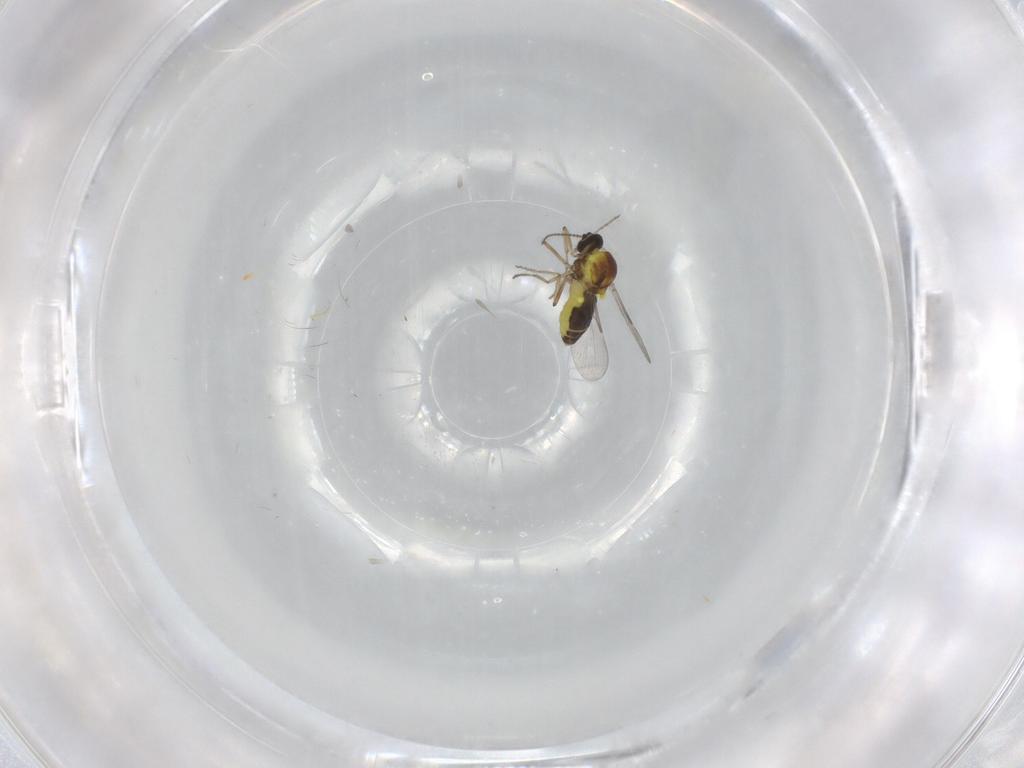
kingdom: Animalia
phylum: Arthropoda
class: Insecta
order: Diptera
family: Ceratopogonidae
